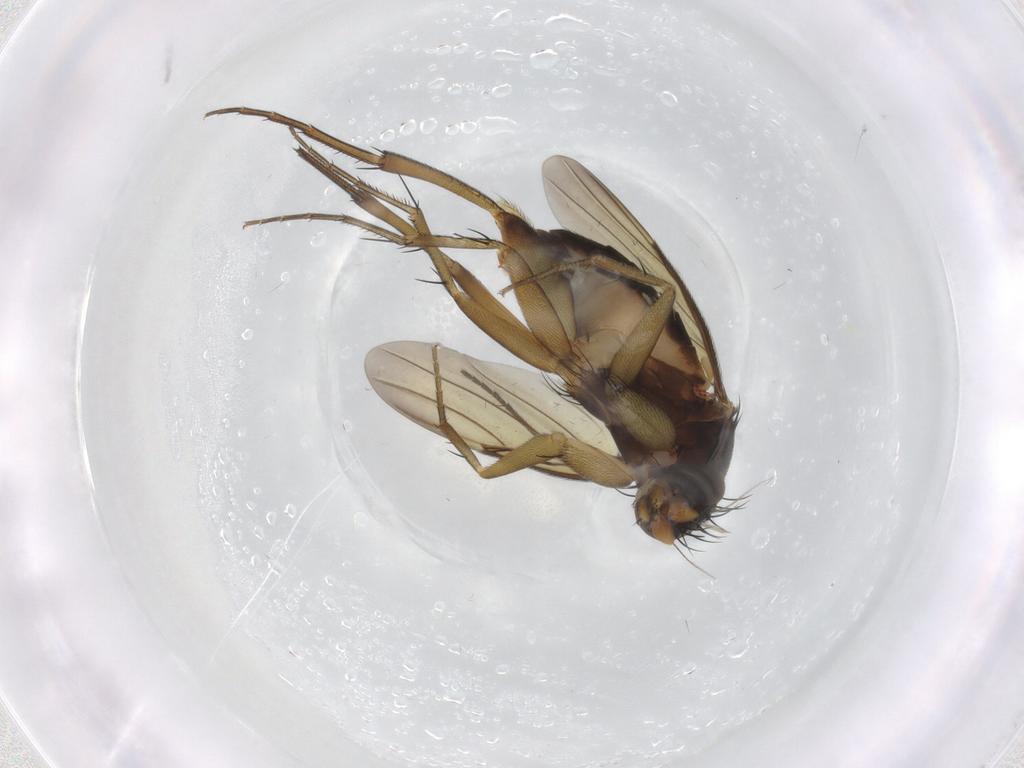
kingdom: Animalia
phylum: Arthropoda
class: Insecta
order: Diptera
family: Phoridae
